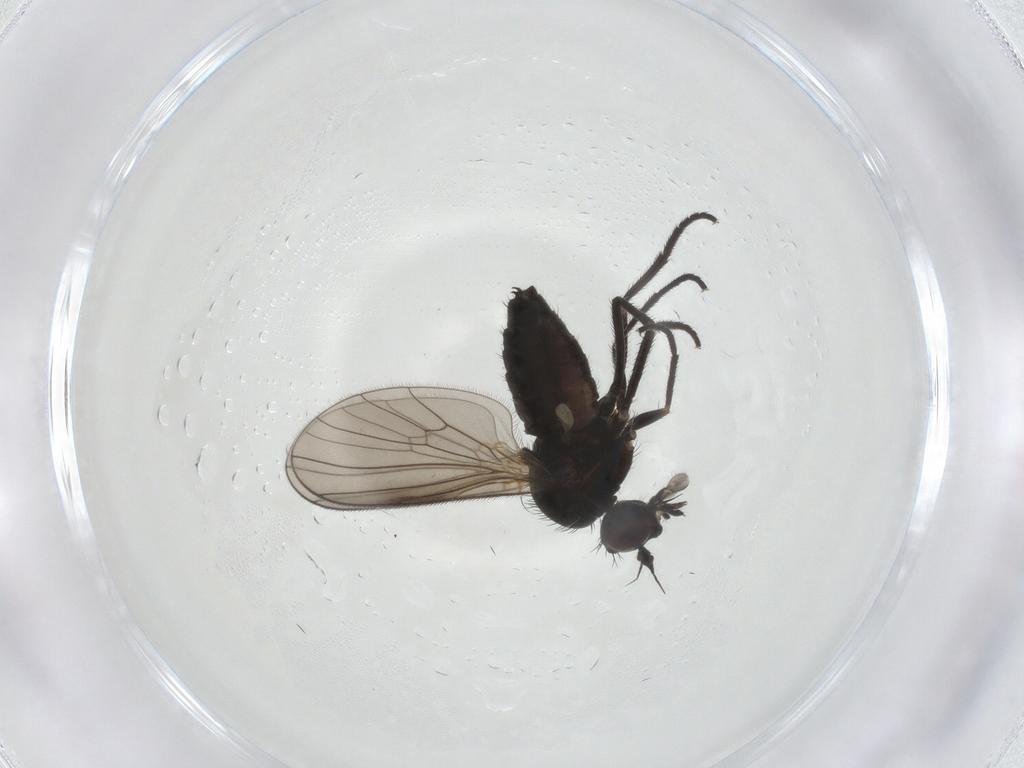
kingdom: Animalia
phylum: Arthropoda
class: Insecta
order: Diptera
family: Dolichopodidae
